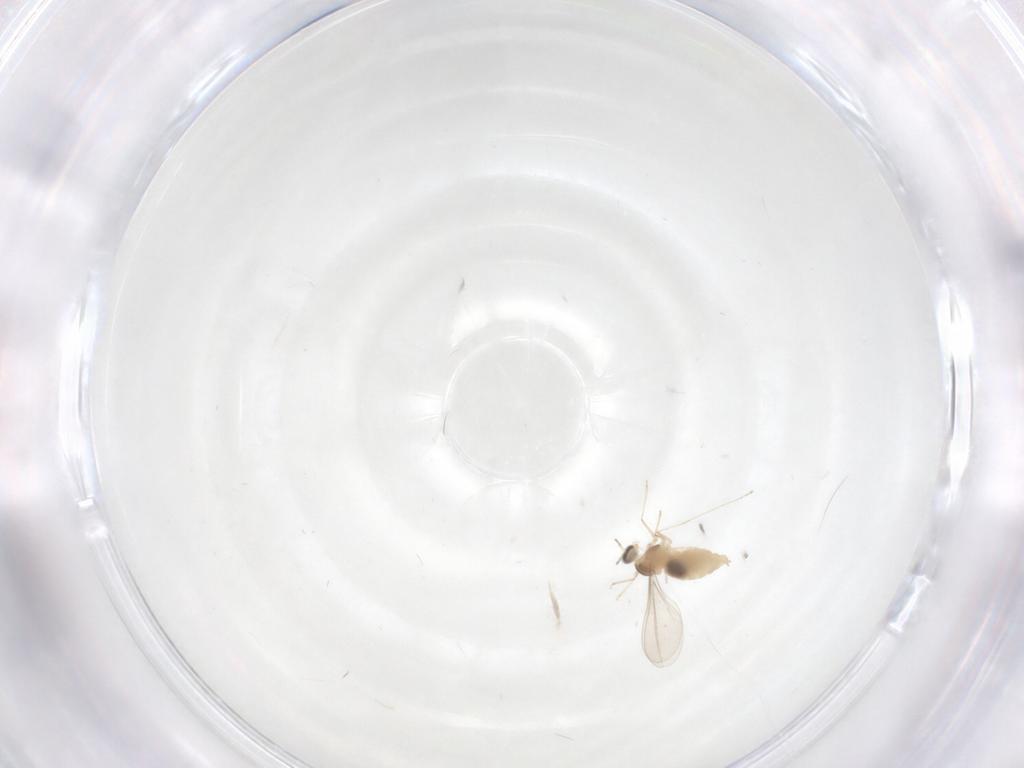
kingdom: Animalia
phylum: Arthropoda
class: Insecta
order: Diptera
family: Cecidomyiidae
